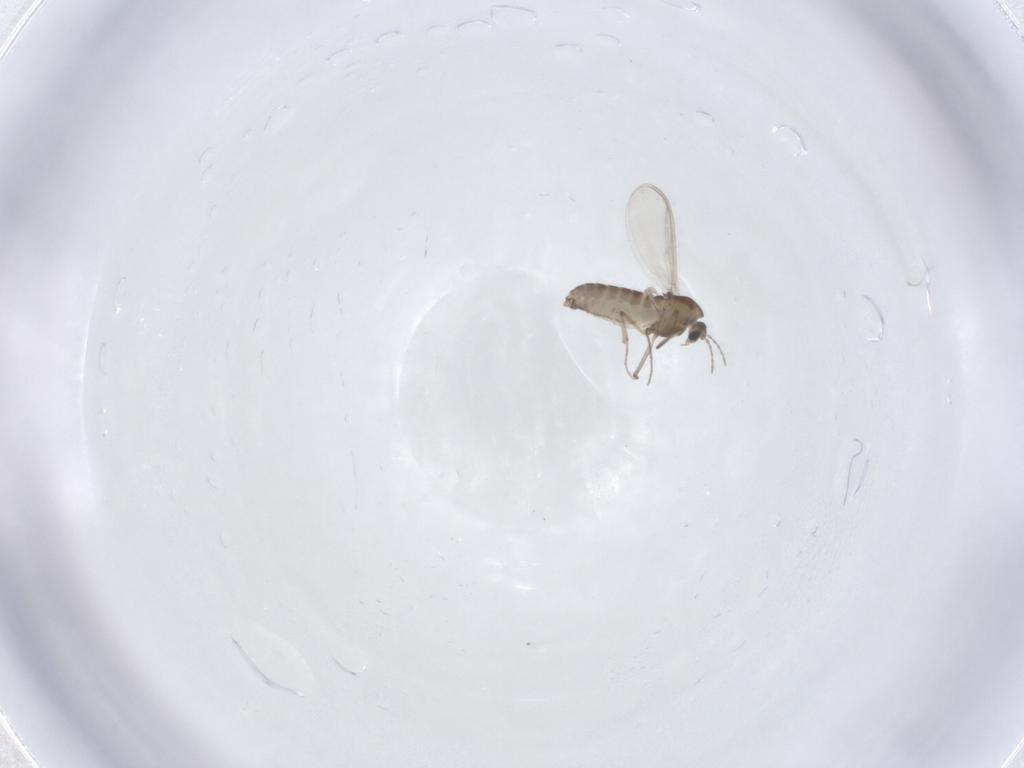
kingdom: Animalia
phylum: Arthropoda
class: Insecta
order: Diptera
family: Chironomidae
